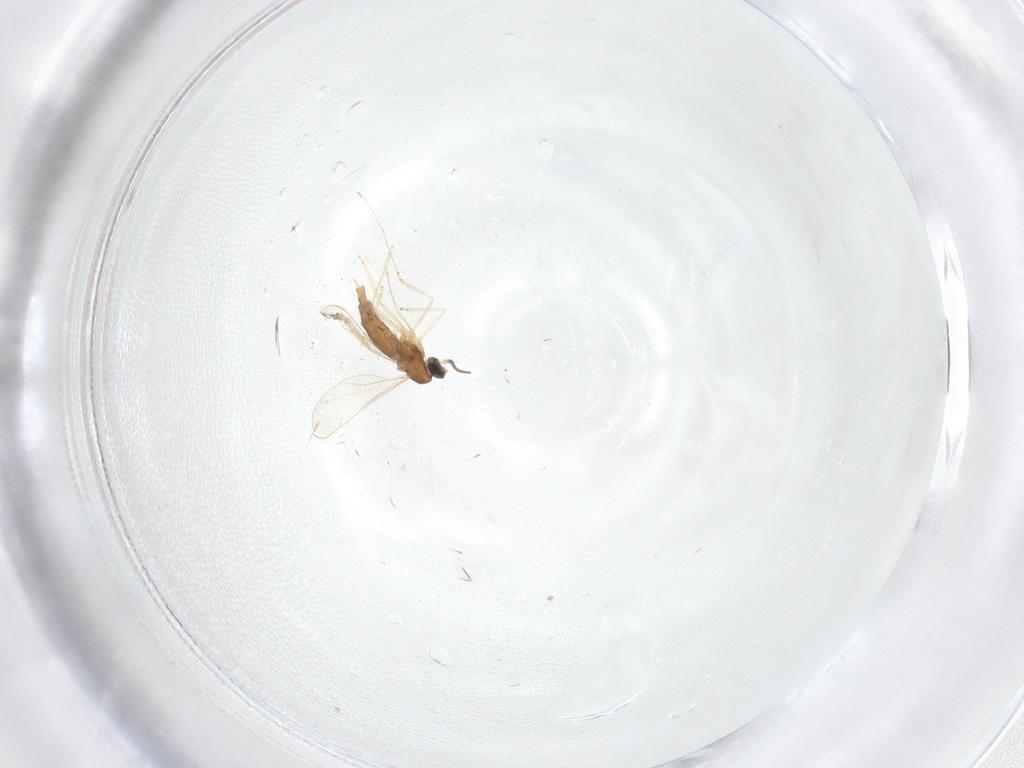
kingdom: Animalia
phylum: Arthropoda
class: Insecta
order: Diptera
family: Cecidomyiidae
